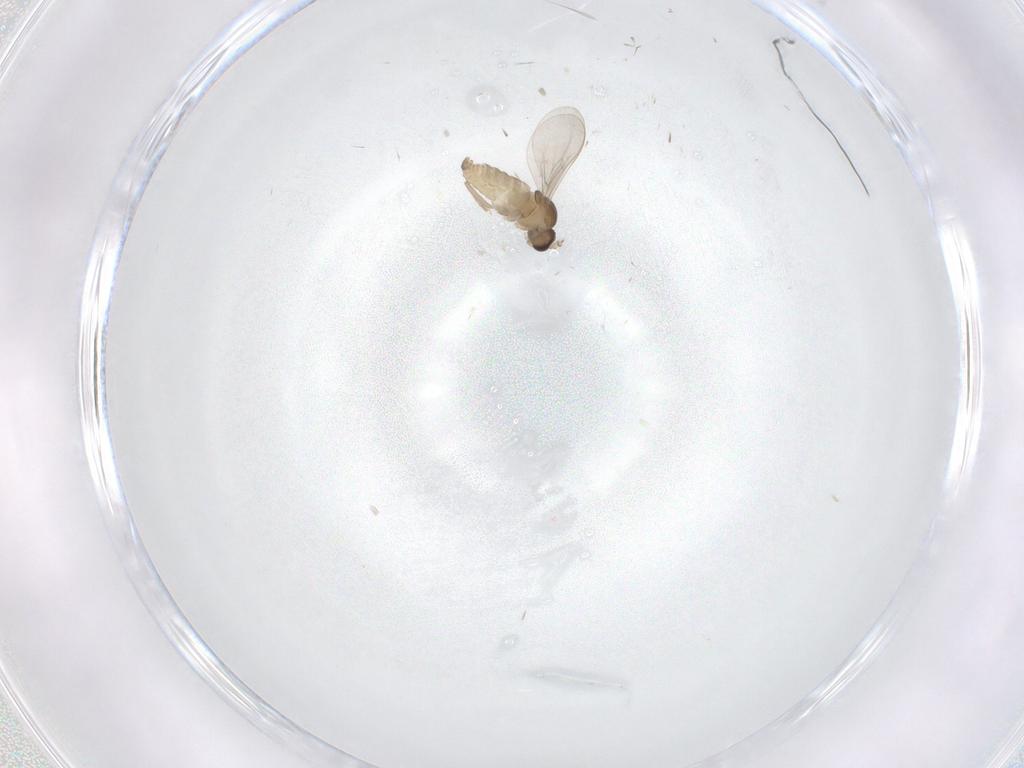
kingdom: Animalia
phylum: Arthropoda
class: Insecta
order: Diptera
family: Cecidomyiidae
